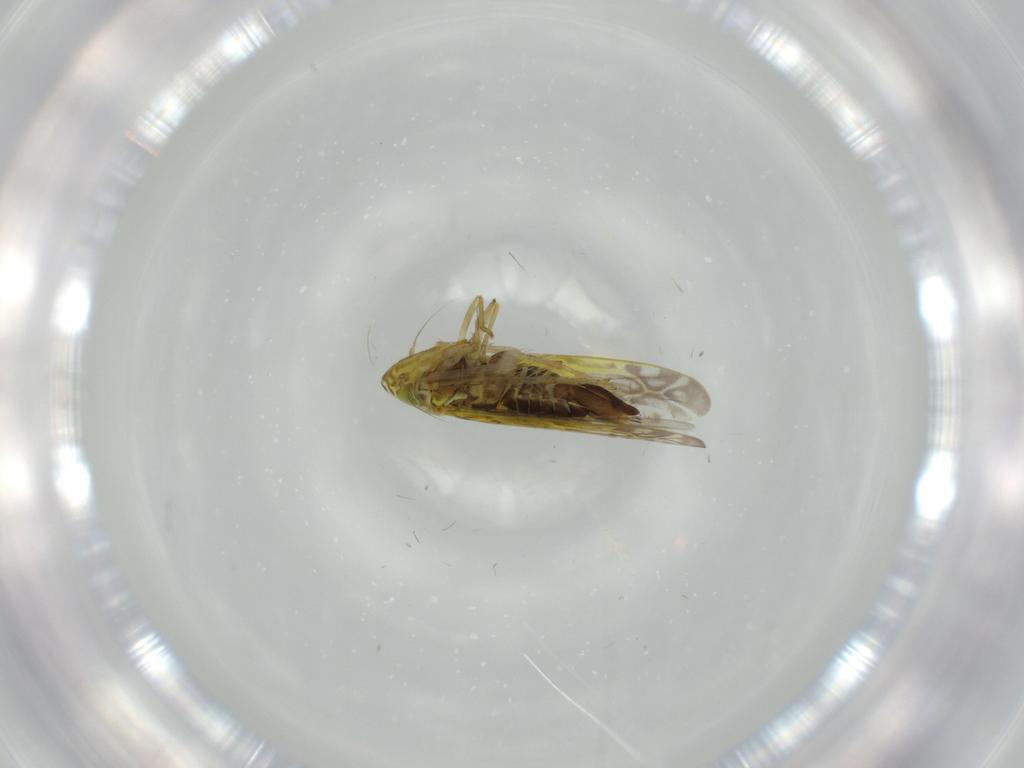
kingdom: Animalia
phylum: Arthropoda
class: Insecta
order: Hemiptera
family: Cicadellidae
